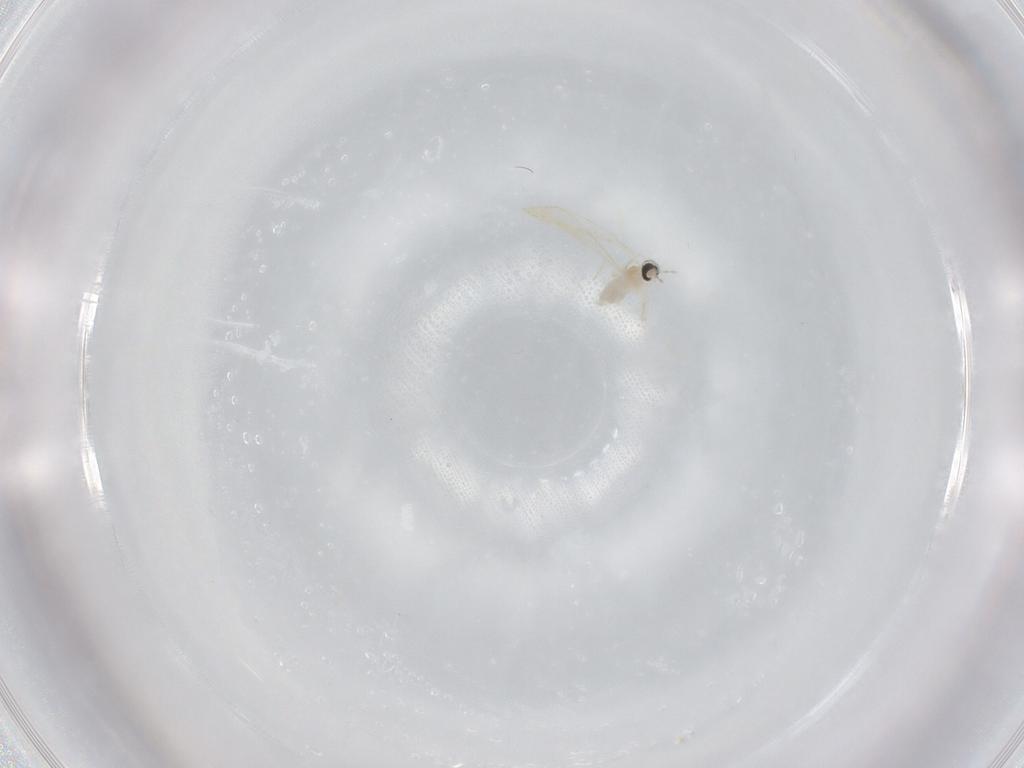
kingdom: Animalia
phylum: Arthropoda
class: Insecta
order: Diptera
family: Cecidomyiidae
